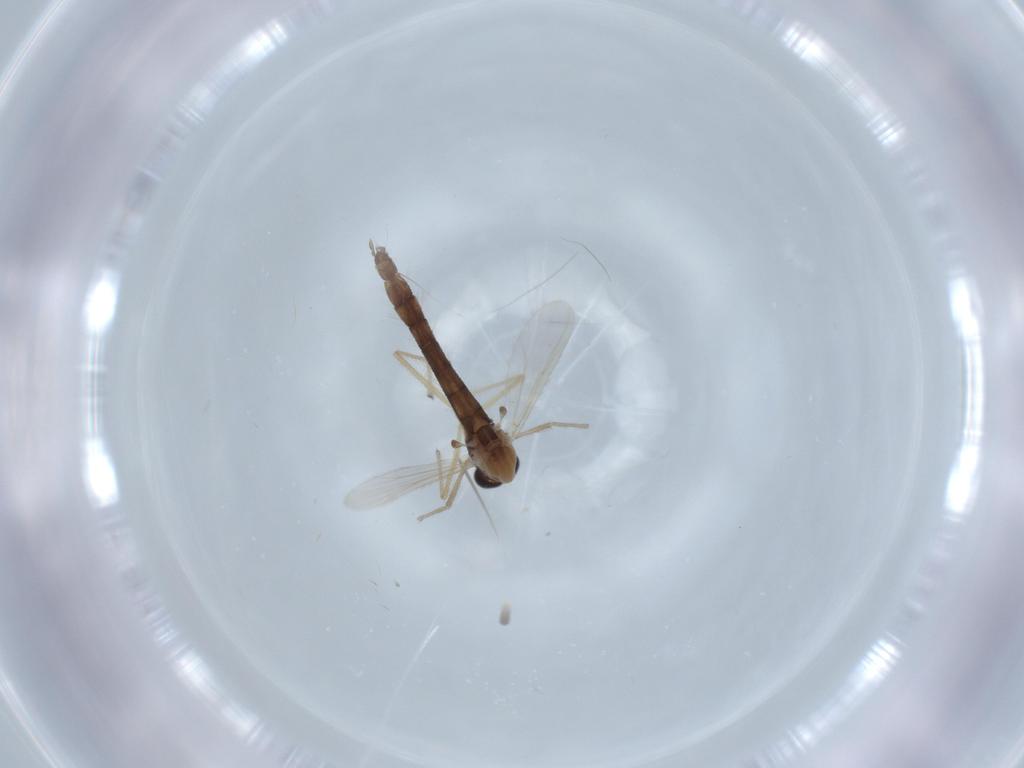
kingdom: Animalia
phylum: Arthropoda
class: Insecta
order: Diptera
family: Chironomidae
